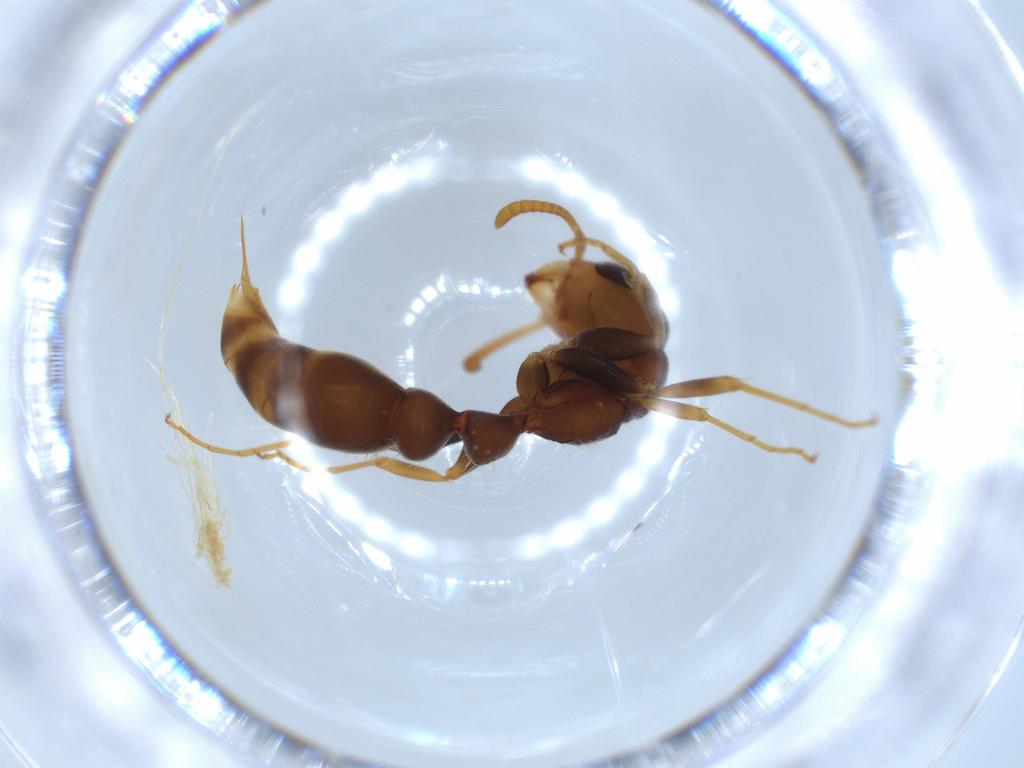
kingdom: Animalia
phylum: Arthropoda
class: Insecta
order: Hymenoptera
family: Formicidae
